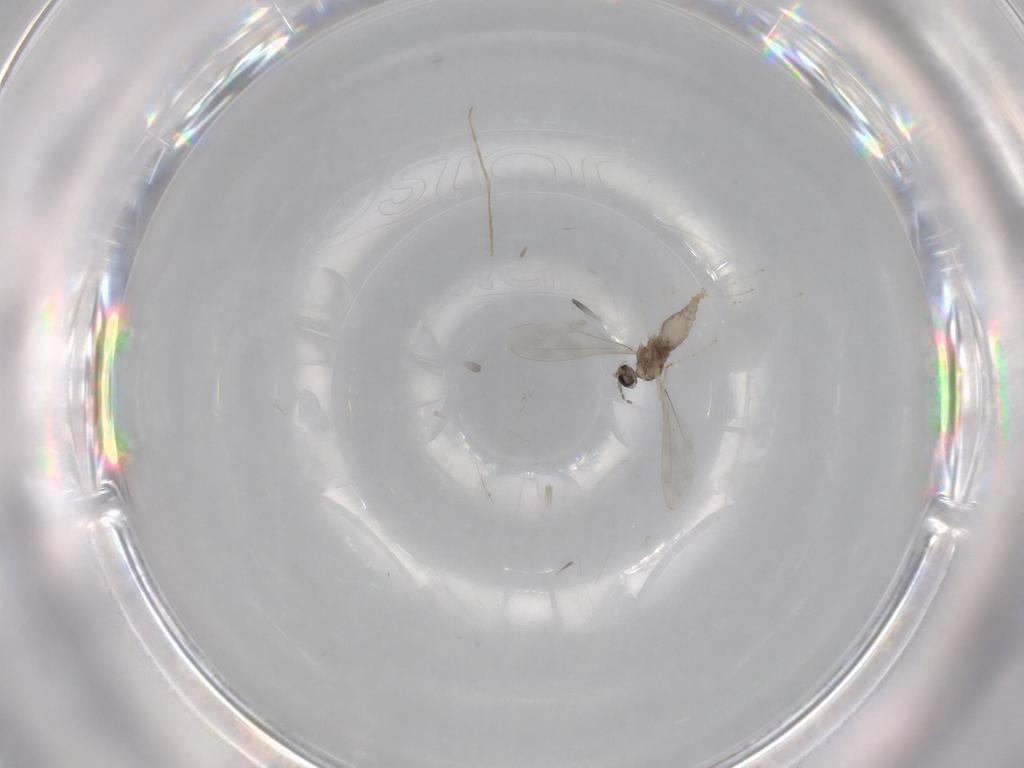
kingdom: Animalia
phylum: Arthropoda
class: Insecta
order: Diptera
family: Cecidomyiidae
